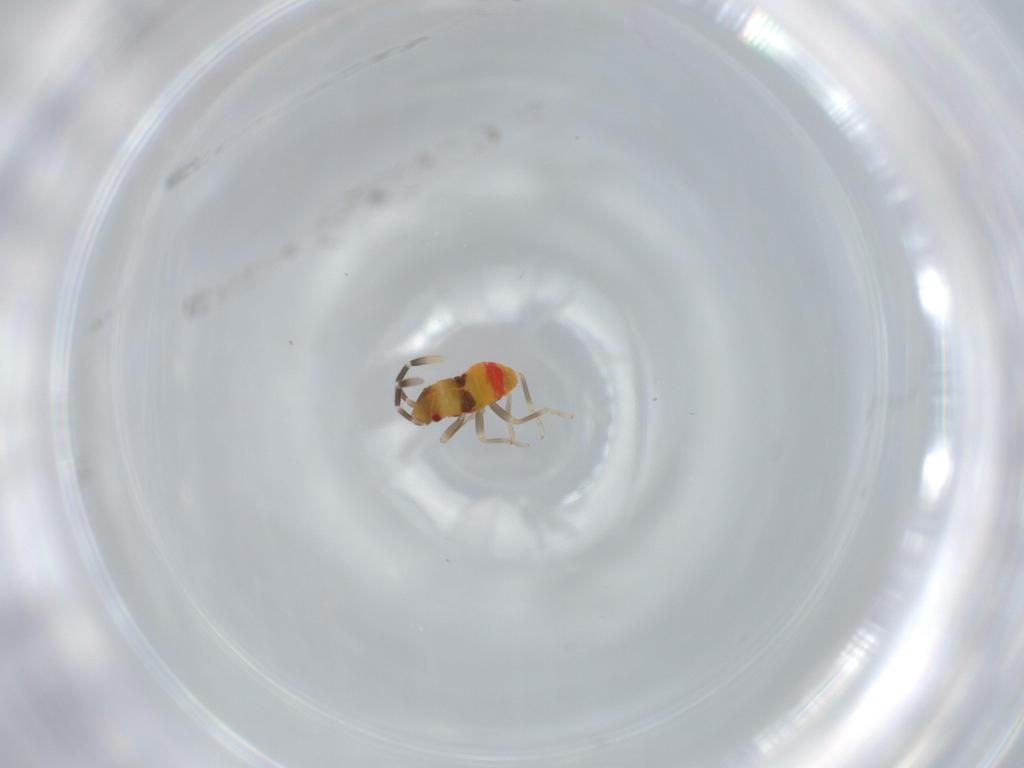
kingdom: Animalia
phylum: Arthropoda
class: Insecta
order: Hemiptera
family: Rhyparochromidae
